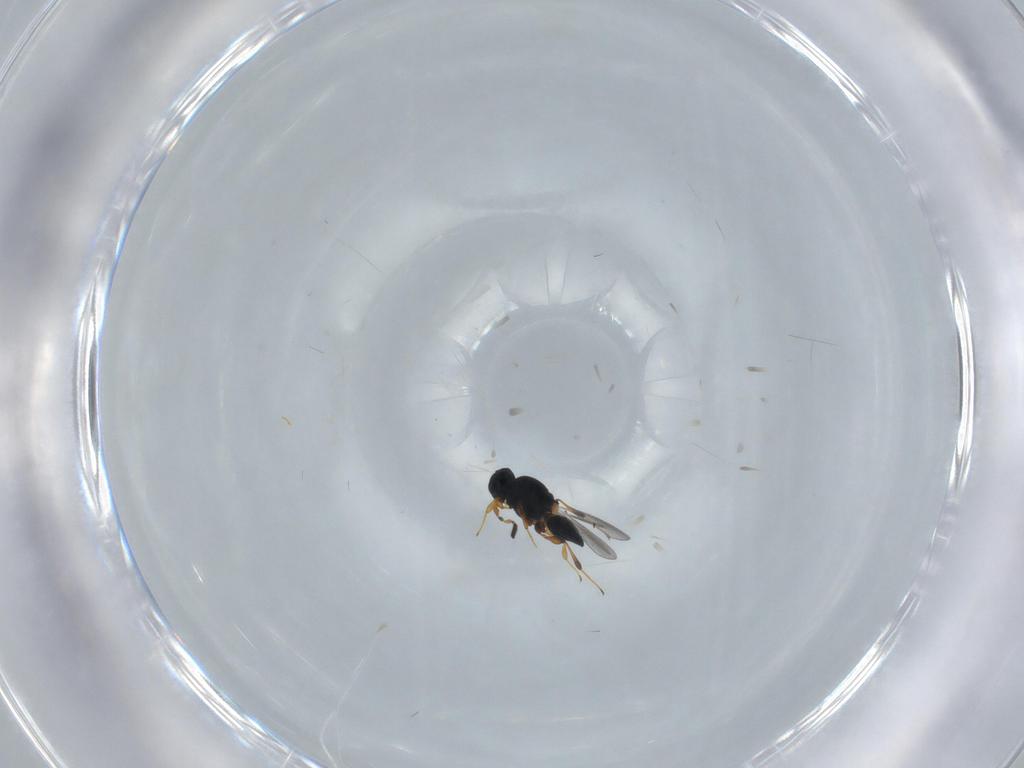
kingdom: Animalia
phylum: Arthropoda
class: Insecta
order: Hymenoptera
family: Platygastridae
